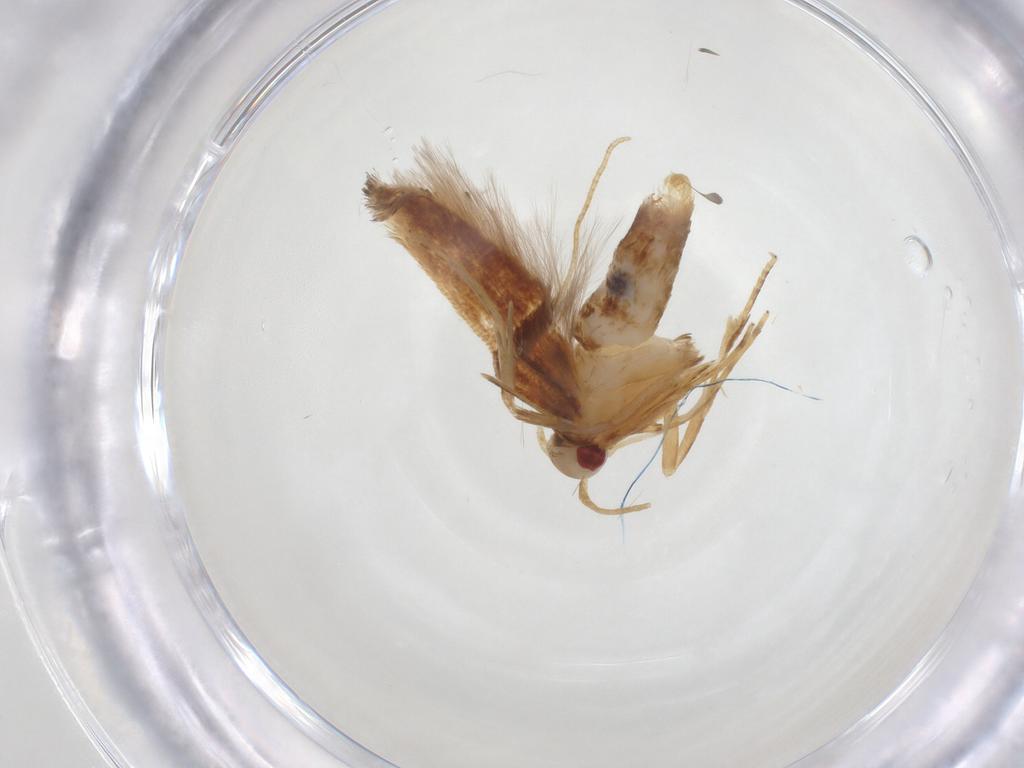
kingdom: Animalia
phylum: Arthropoda
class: Insecta
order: Lepidoptera
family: Cosmopterigidae
